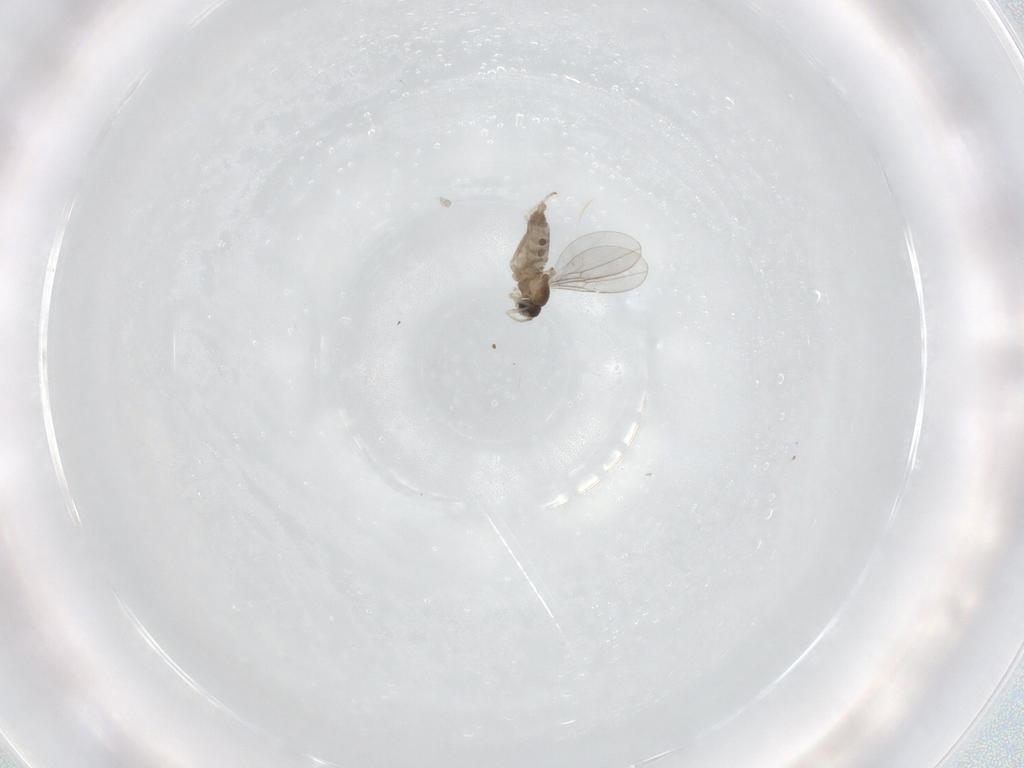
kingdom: Animalia
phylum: Arthropoda
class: Insecta
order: Diptera
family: Cecidomyiidae
